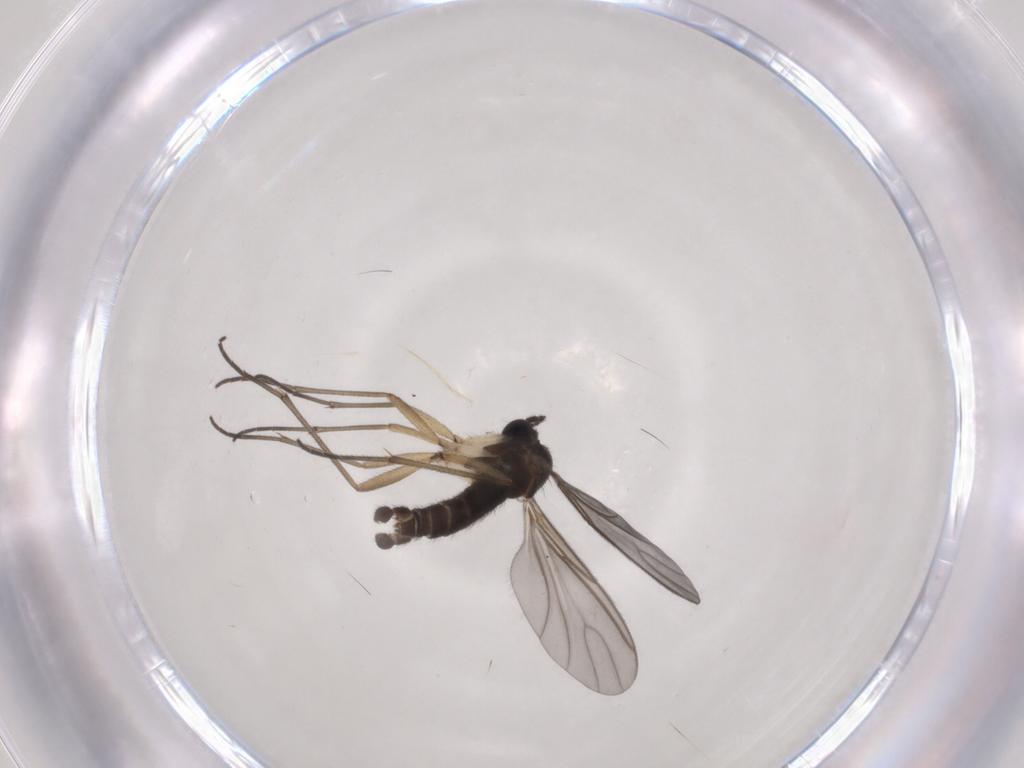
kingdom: Animalia
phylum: Arthropoda
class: Insecta
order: Diptera
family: Sciaridae
